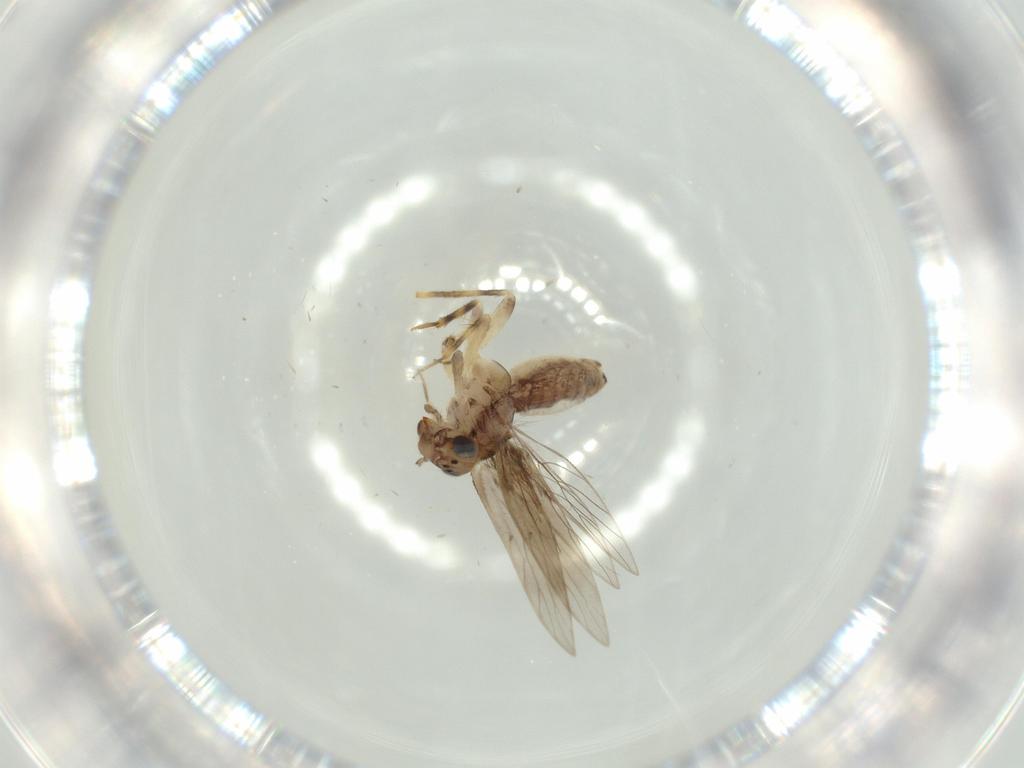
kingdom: Animalia
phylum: Arthropoda
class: Insecta
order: Psocodea
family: Lepidopsocidae
